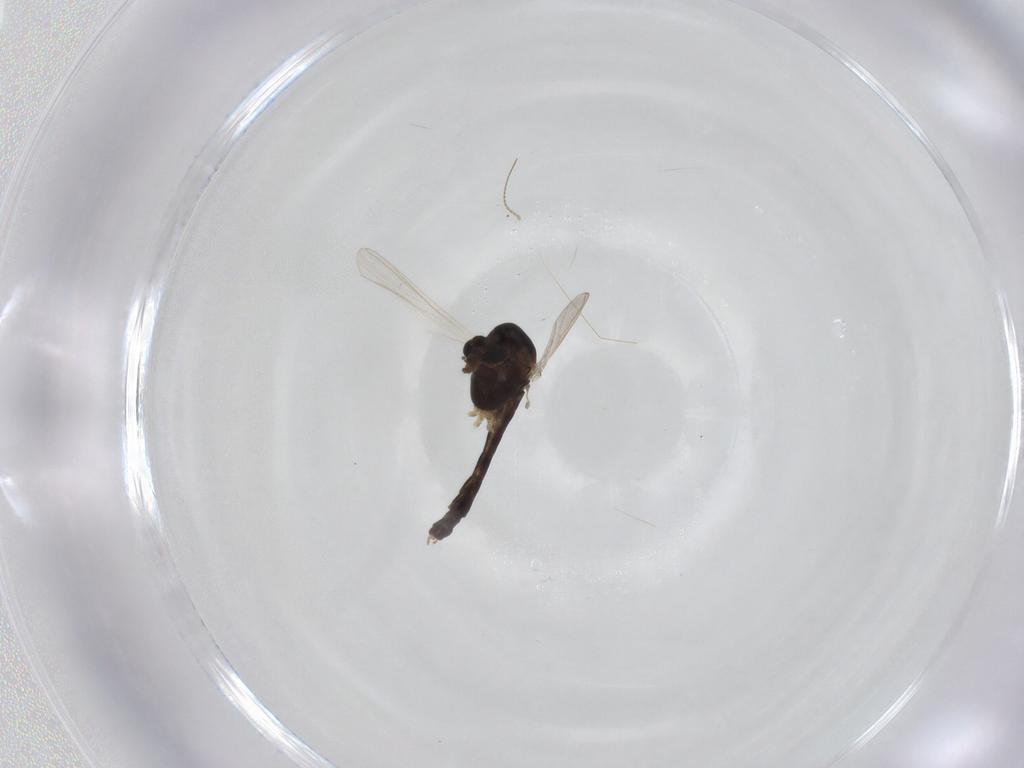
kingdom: Animalia
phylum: Arthropoda
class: Insecta
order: Diptera
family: Chironomidae
